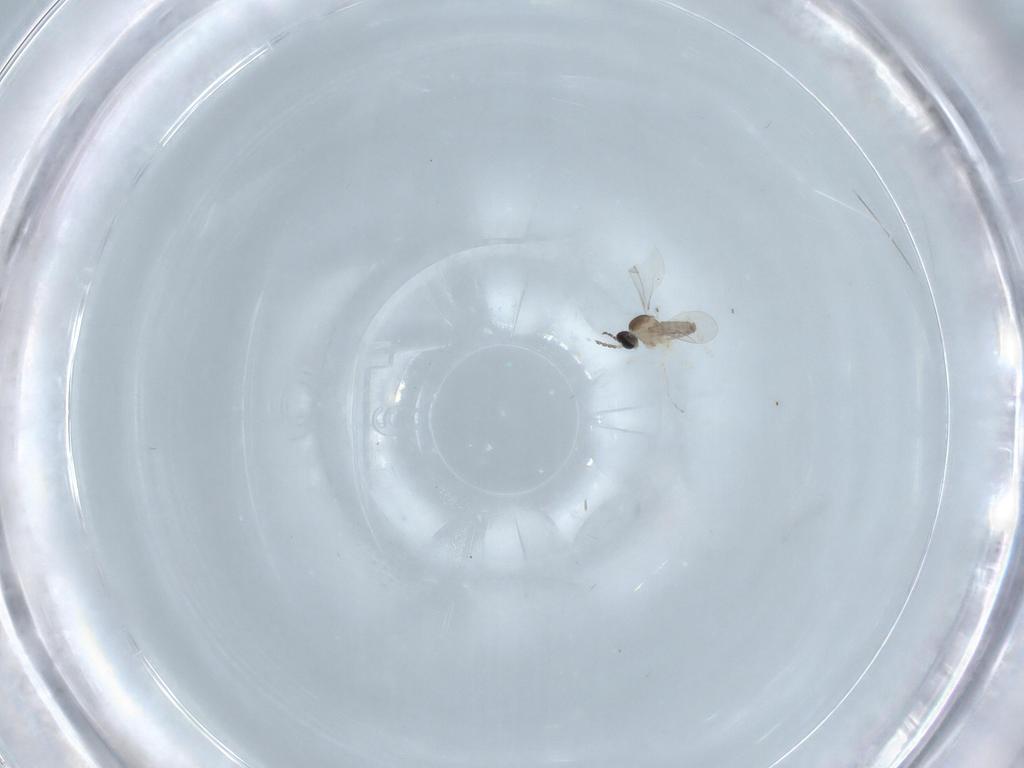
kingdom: Animalia
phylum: Arthropoda
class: Insecta
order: Diptera
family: Cecidomyiidae
